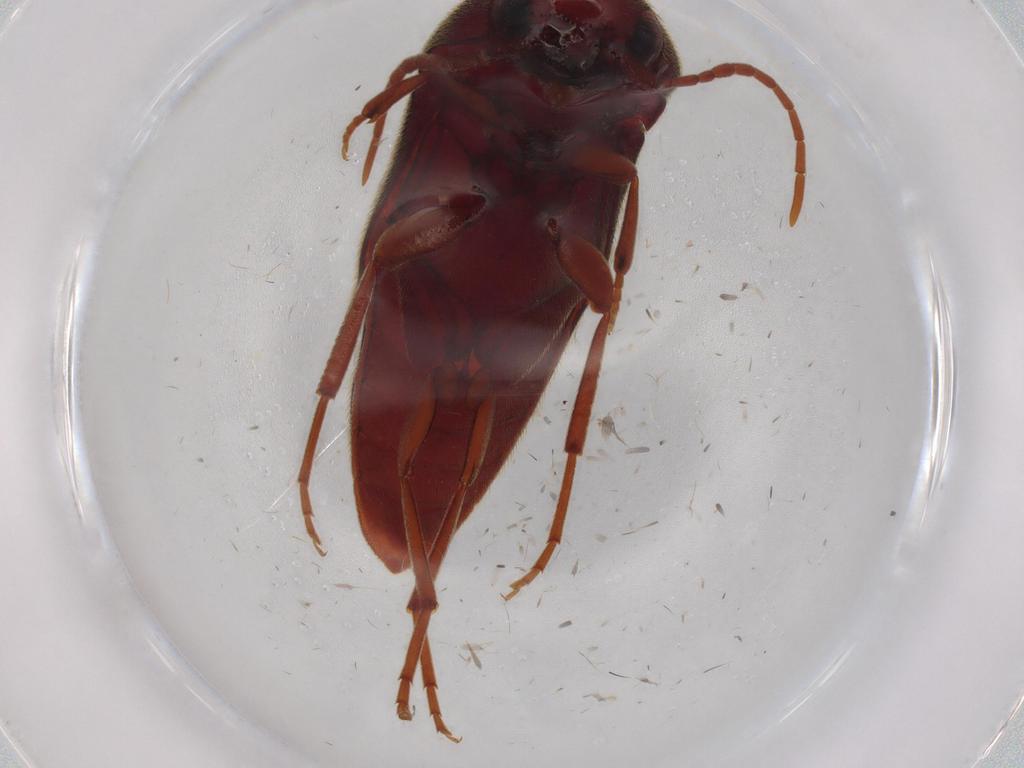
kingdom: Animalia
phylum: Arthropoda
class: Insecta
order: Coleoptera
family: Eucnemidae
